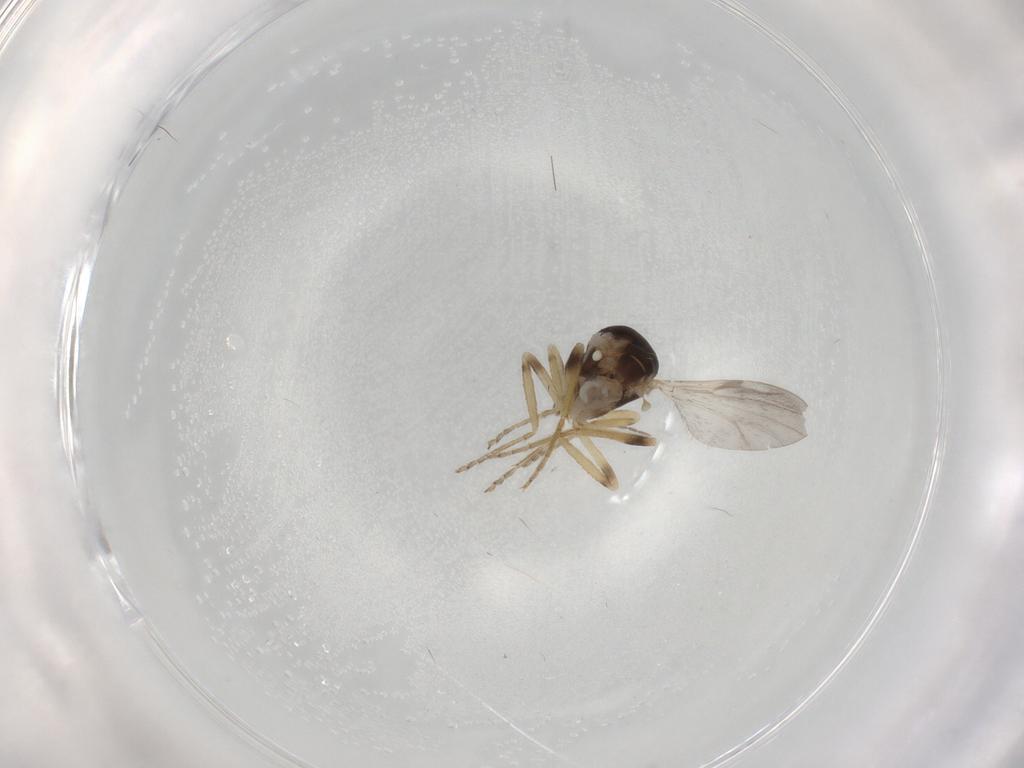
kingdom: Animalia
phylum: Arthropoda
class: Insecta
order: Diptera
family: Ceratopogonidae
